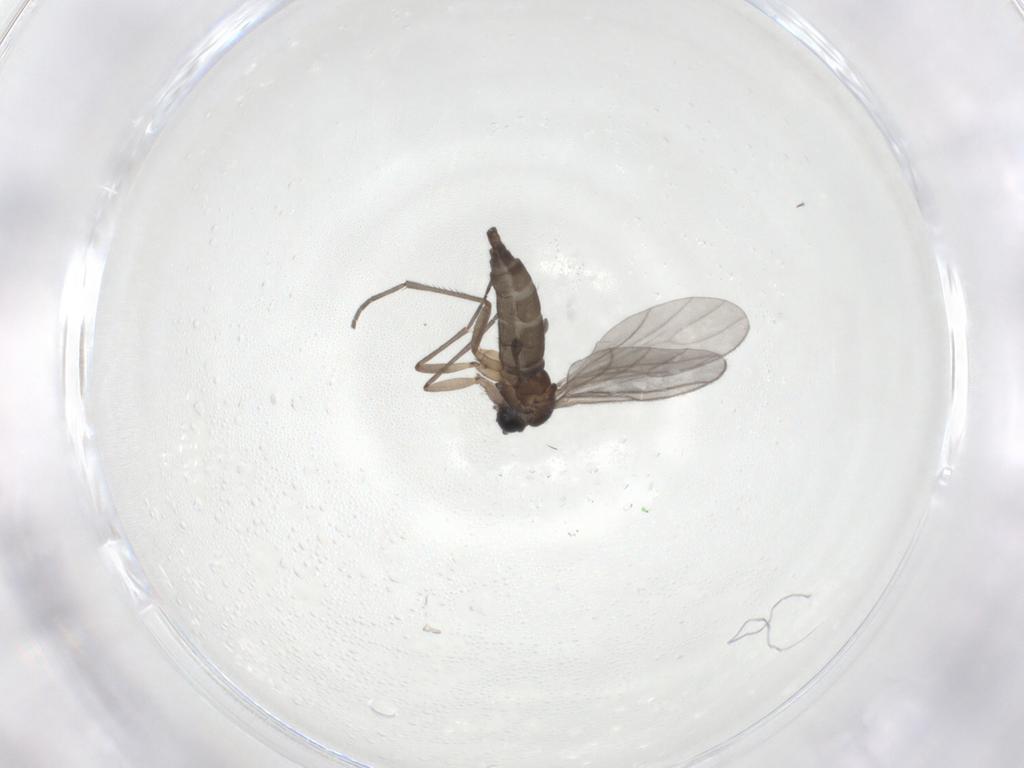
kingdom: Animalia
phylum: Arthropoda
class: Insecta
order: Diptera
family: Sciaridae
